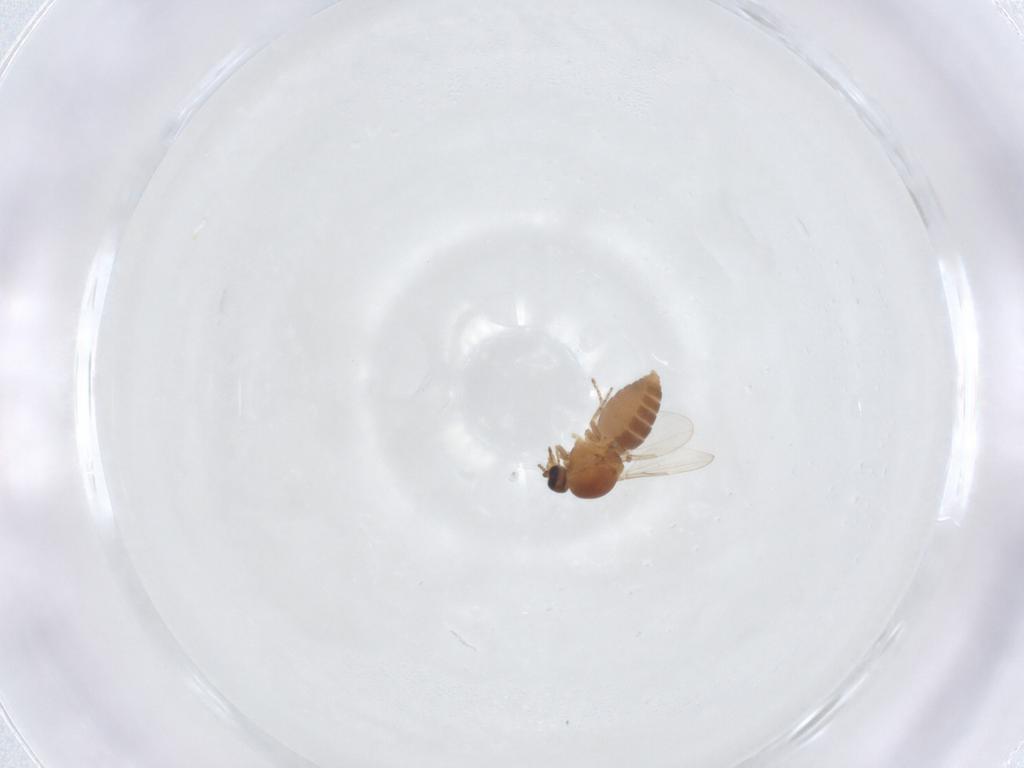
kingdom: Animalia
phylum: Arthropoda
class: Insecta
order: Diptera
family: Ceratopogonidae
